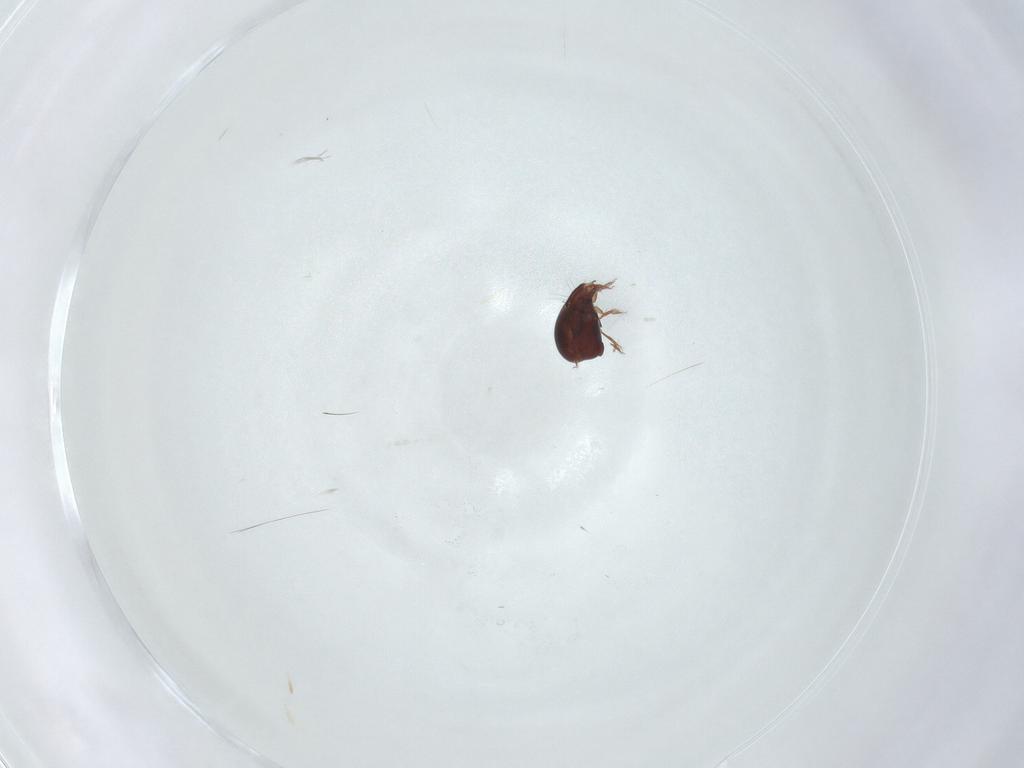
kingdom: Animalia
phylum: Arthropoda
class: Arachnida
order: Sarcoptiformes
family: Humerobatidae
